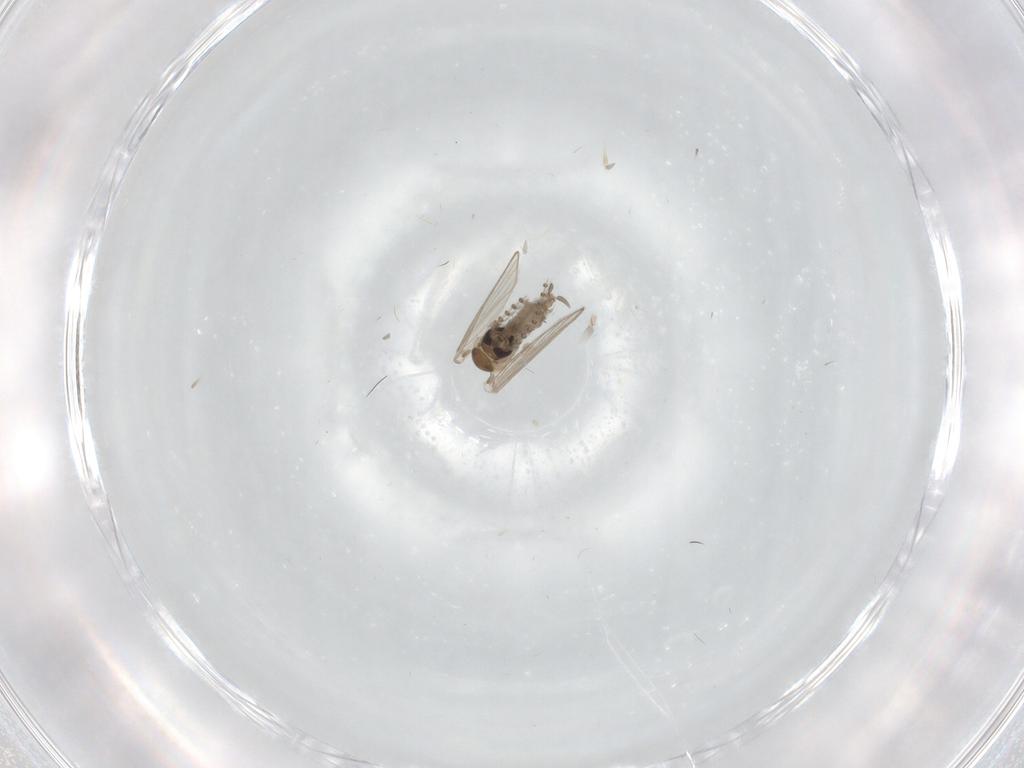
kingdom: Animalia
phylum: Arthropoda
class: Insecta
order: Diptera
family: Psychodidae
